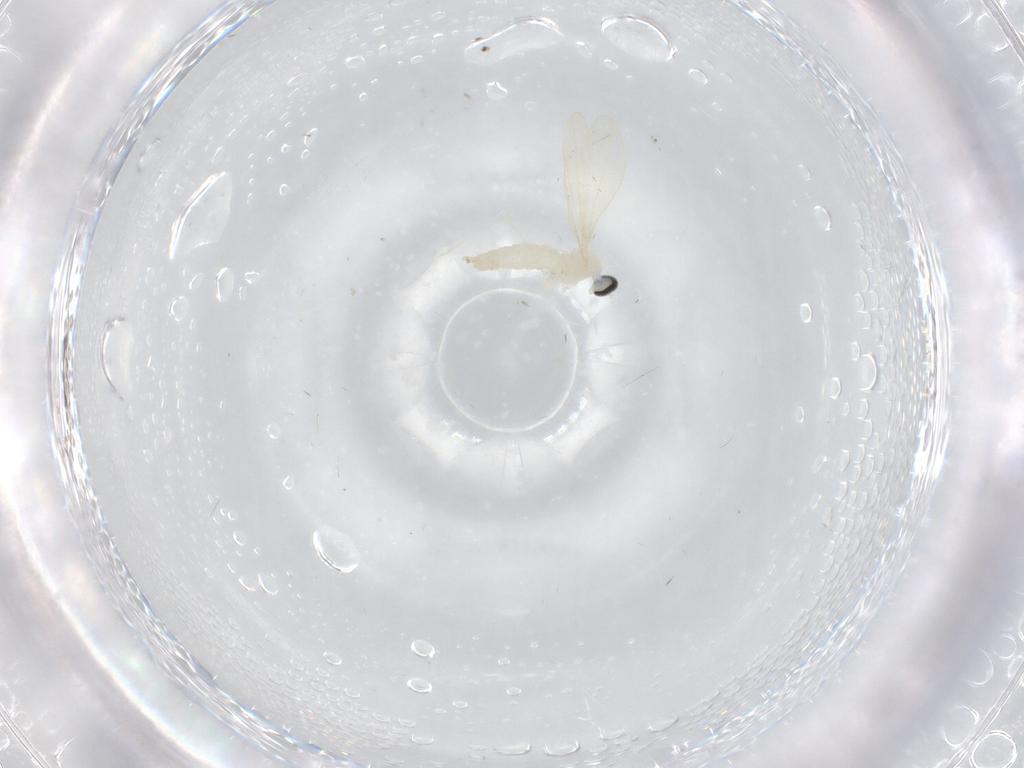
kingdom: Animalia
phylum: Arthropoda
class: Insecta
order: Diptera
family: Cecidomyiidae
